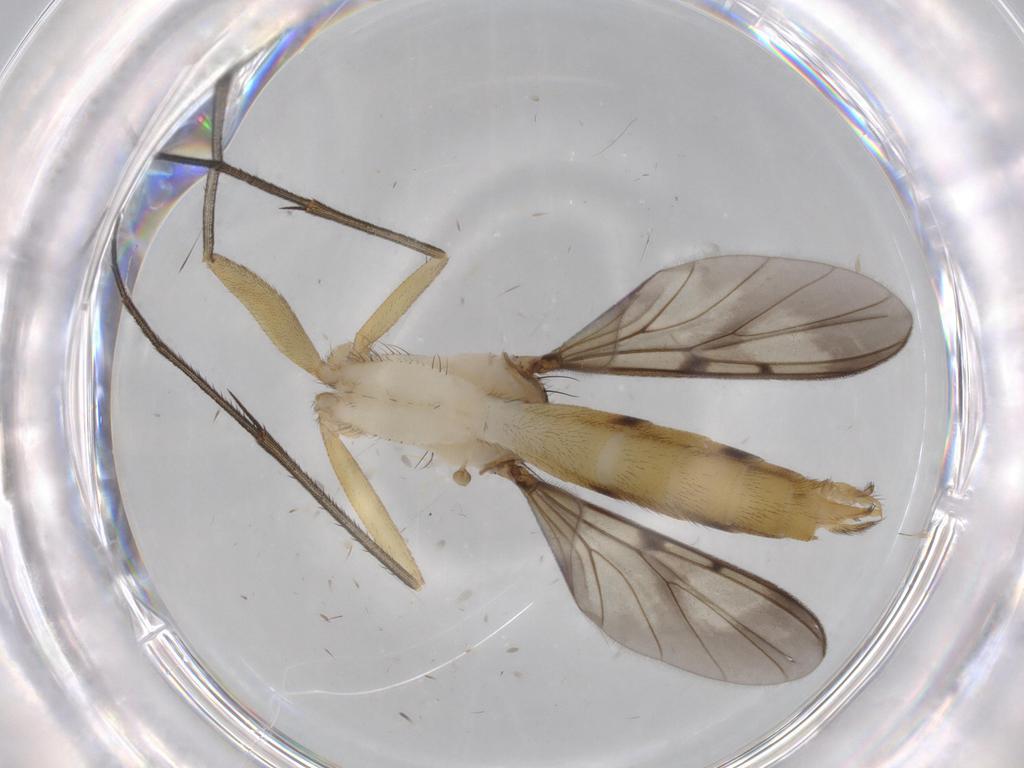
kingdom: Animalia
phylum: Arthropoda
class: Insecta
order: Diptera
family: Mycetophilidae
